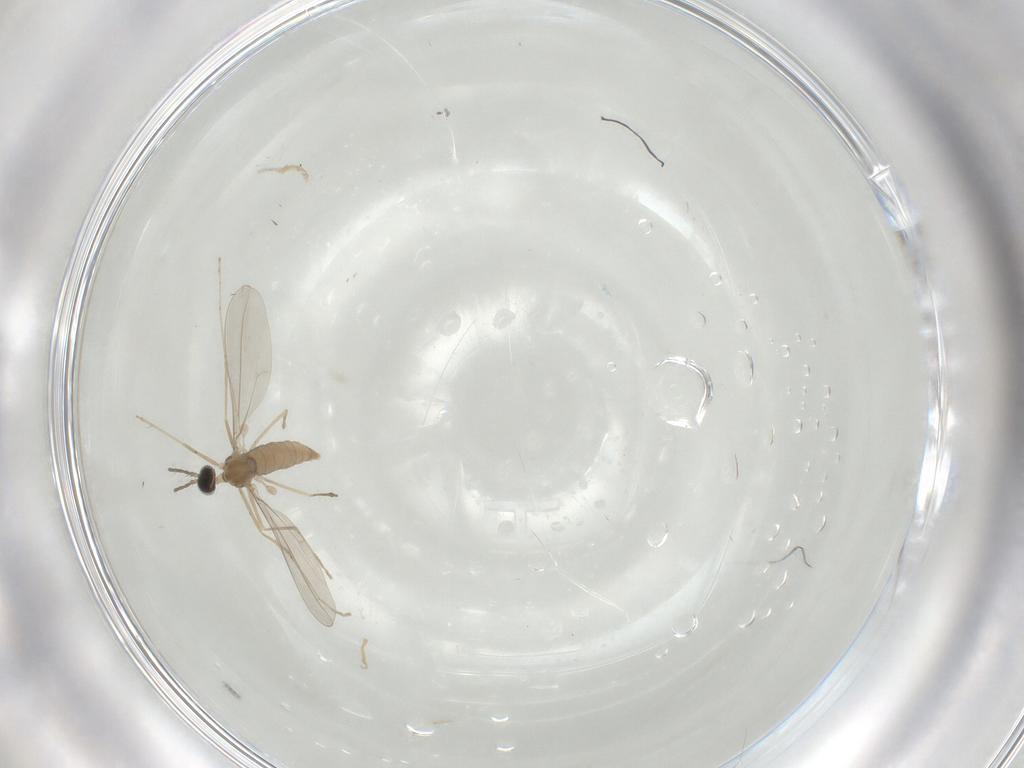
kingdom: Animalia
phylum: Arthropoda
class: Insecta
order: Diptera
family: Cecidomyiidae
